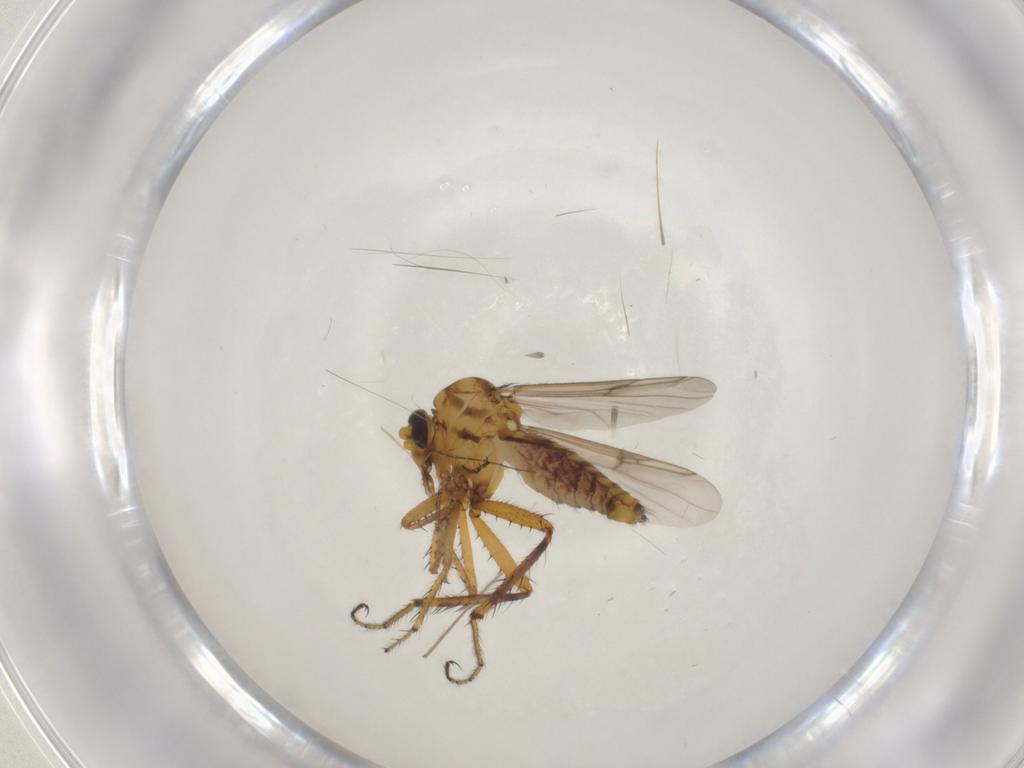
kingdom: Animalia
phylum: Arthropoda
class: Insecta
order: Diptera
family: Chironomidae
